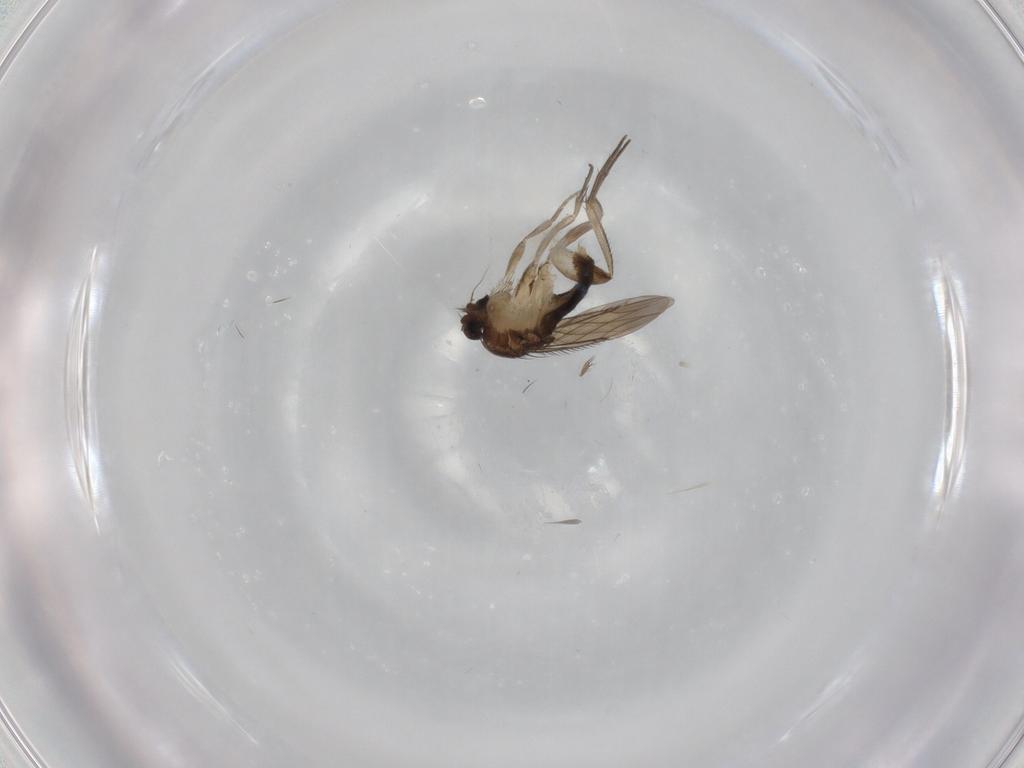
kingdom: Animalia
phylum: Arthropoda
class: Insecta
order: Diptera
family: Phoridae
